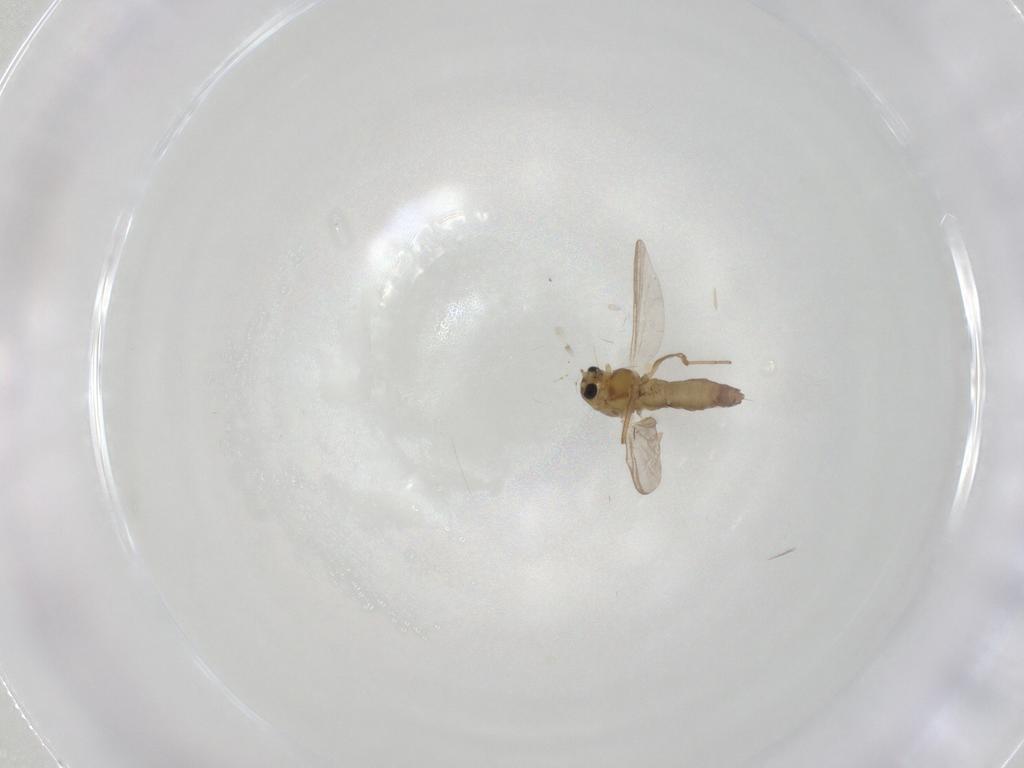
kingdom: Animalia
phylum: Arthropoda
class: Insecta
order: Diptera
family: Chironomidae
